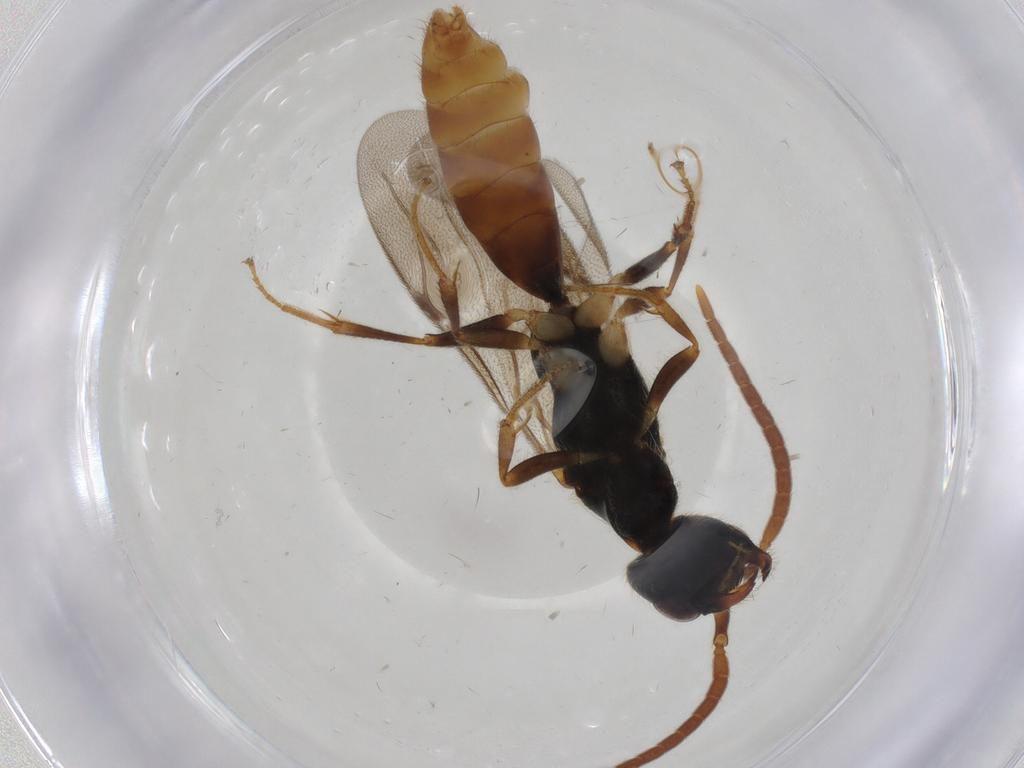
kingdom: Animalia
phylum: Arthropoda
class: Insecta
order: Hymenoptera
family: Bethylidae
